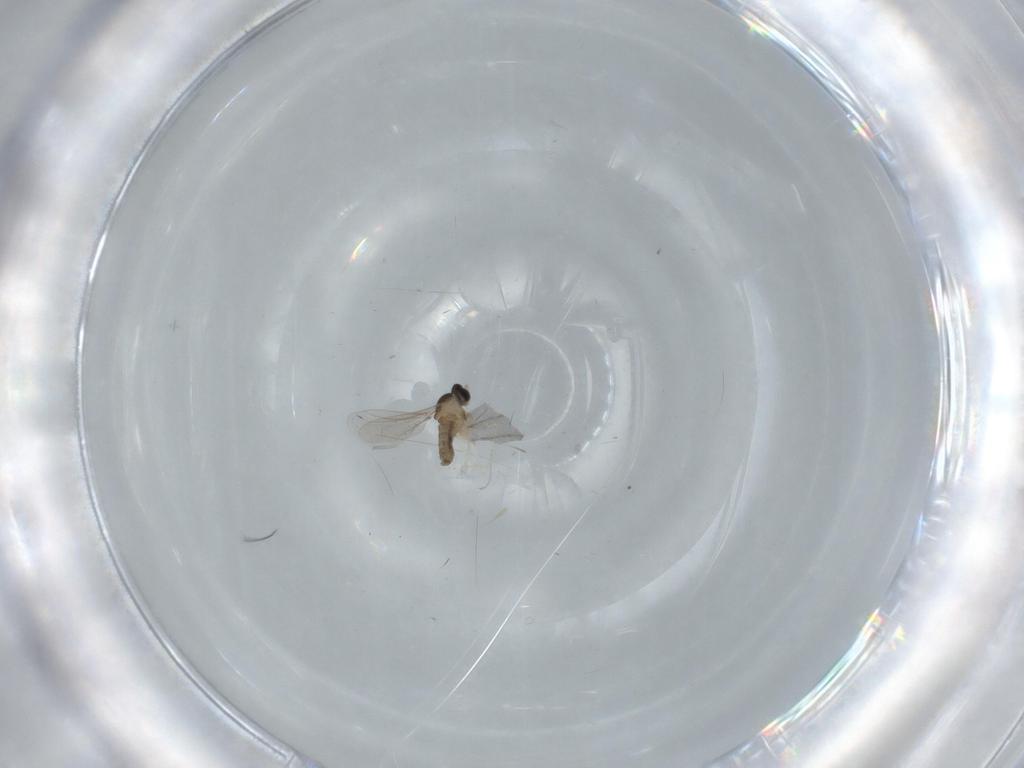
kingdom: Animalia
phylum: Arthropoda
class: Insecta
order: Diptera
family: Cecidomyiidae
